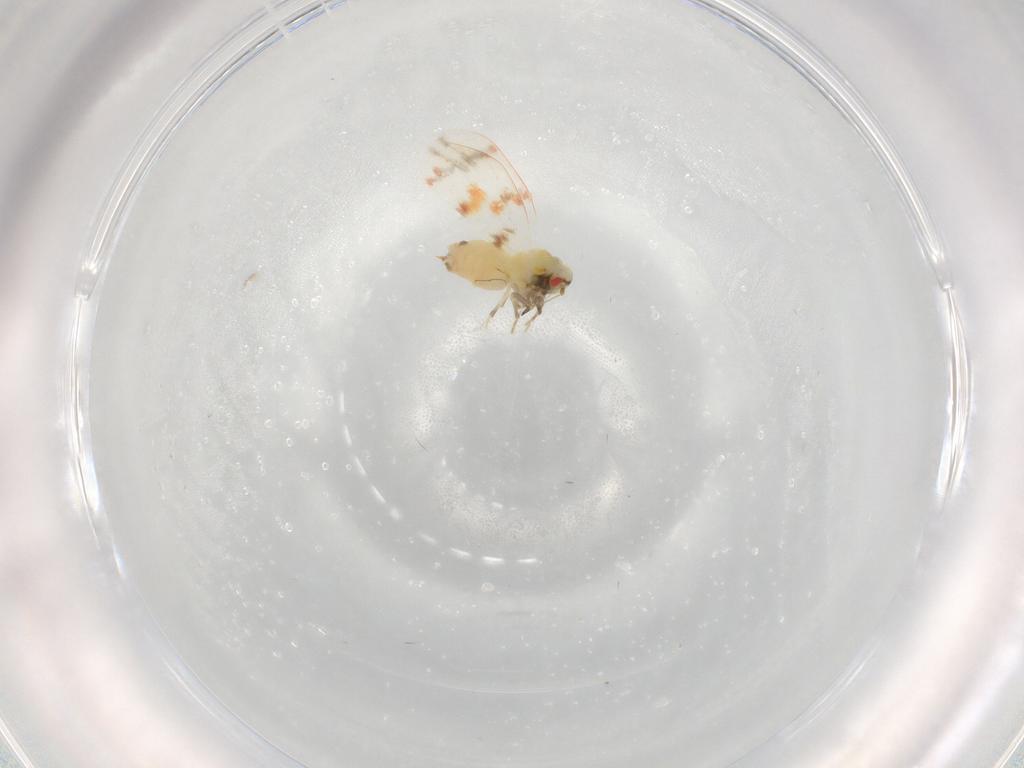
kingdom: Animalia
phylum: Arthropoda
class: Insecta
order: Hemiptera
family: Aleyrodidae
